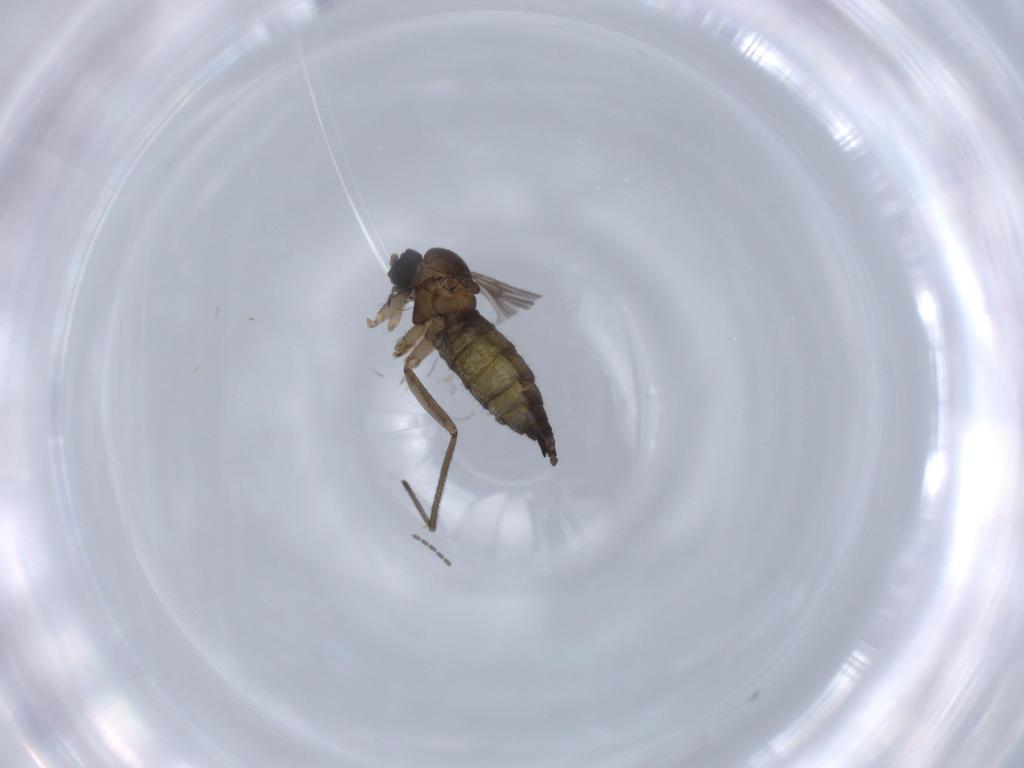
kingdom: Animalia
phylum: Arthropoda
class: Insecta
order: Diptera
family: Sciaridae
